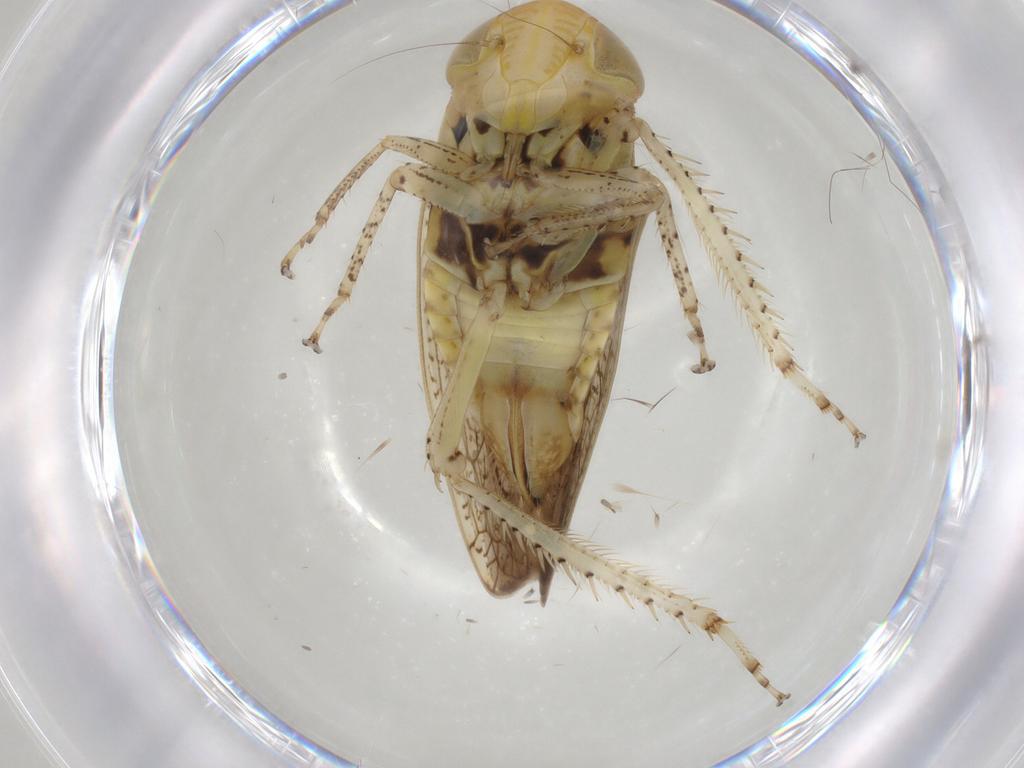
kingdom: Animalia
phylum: Arthropoda
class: Insecta
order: Hemiptera
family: Cicadellidae
